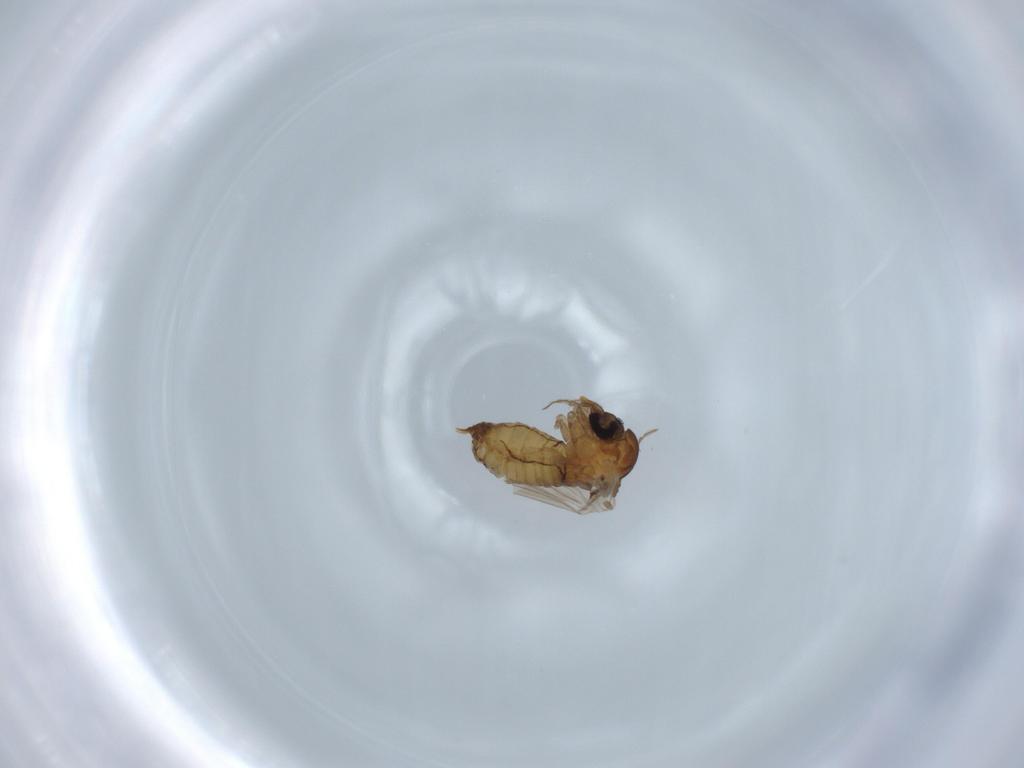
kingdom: Animalia
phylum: Arthropoda
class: Insecta
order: Diptera
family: Psychodidae
